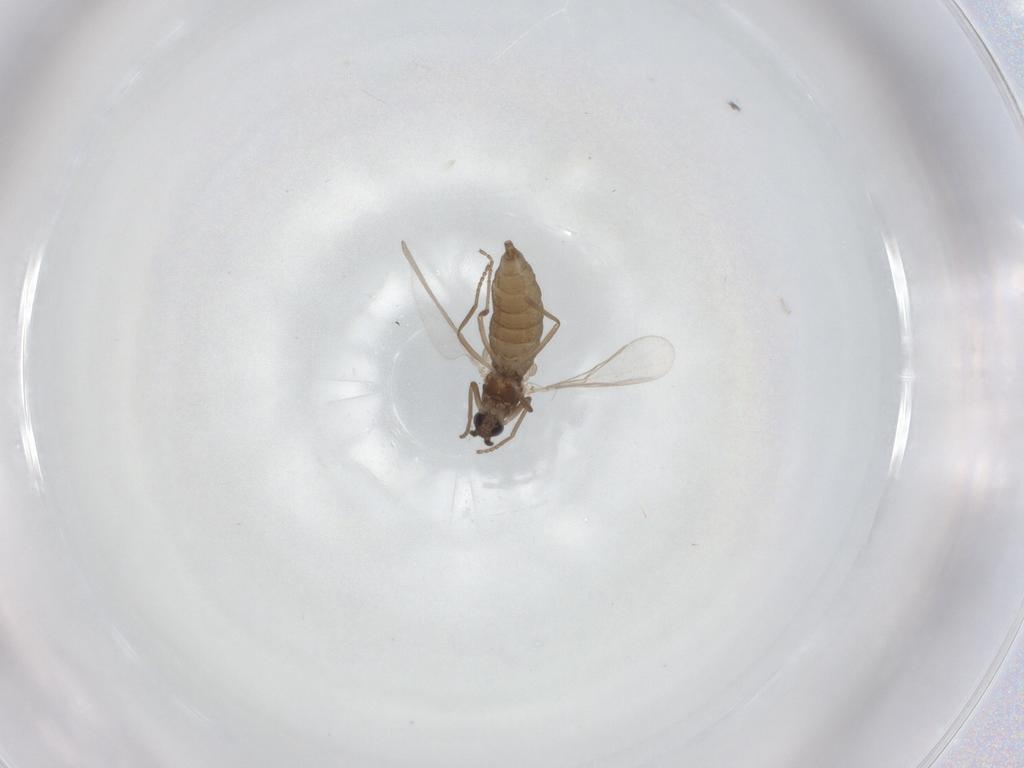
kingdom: Animalia
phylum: Arthropoda
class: Insecta
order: Diptera
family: Cecidomyiidae
